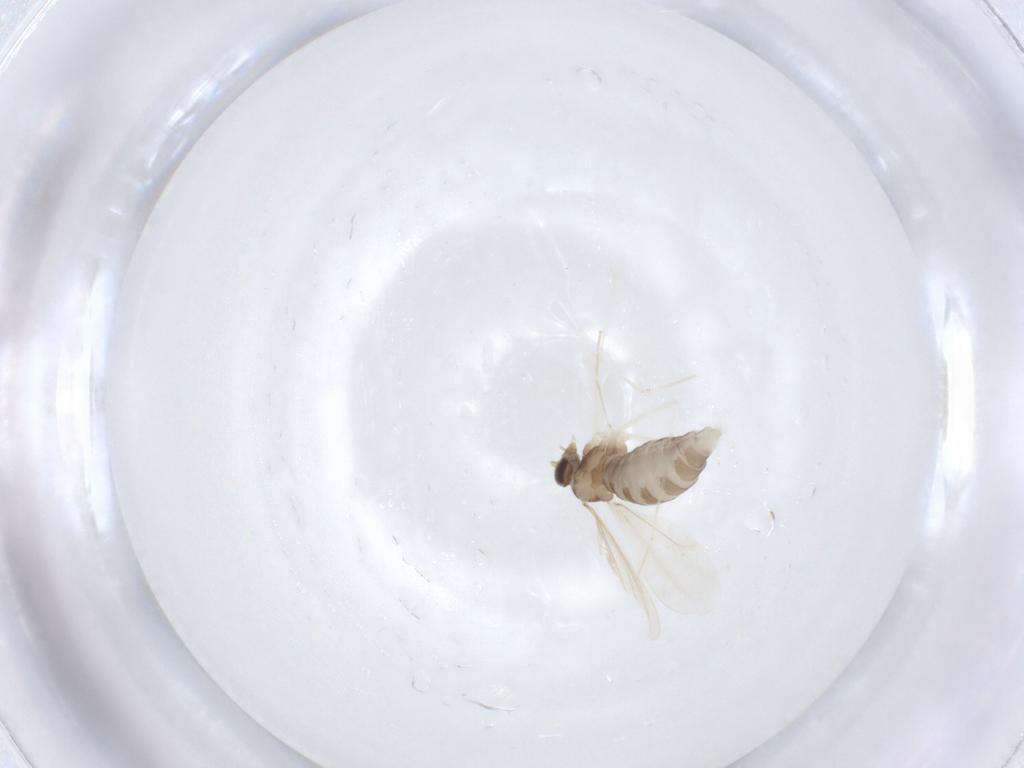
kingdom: Animalia
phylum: Arthropoda
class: Insecta
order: Diptera
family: Cecidomyiidae
